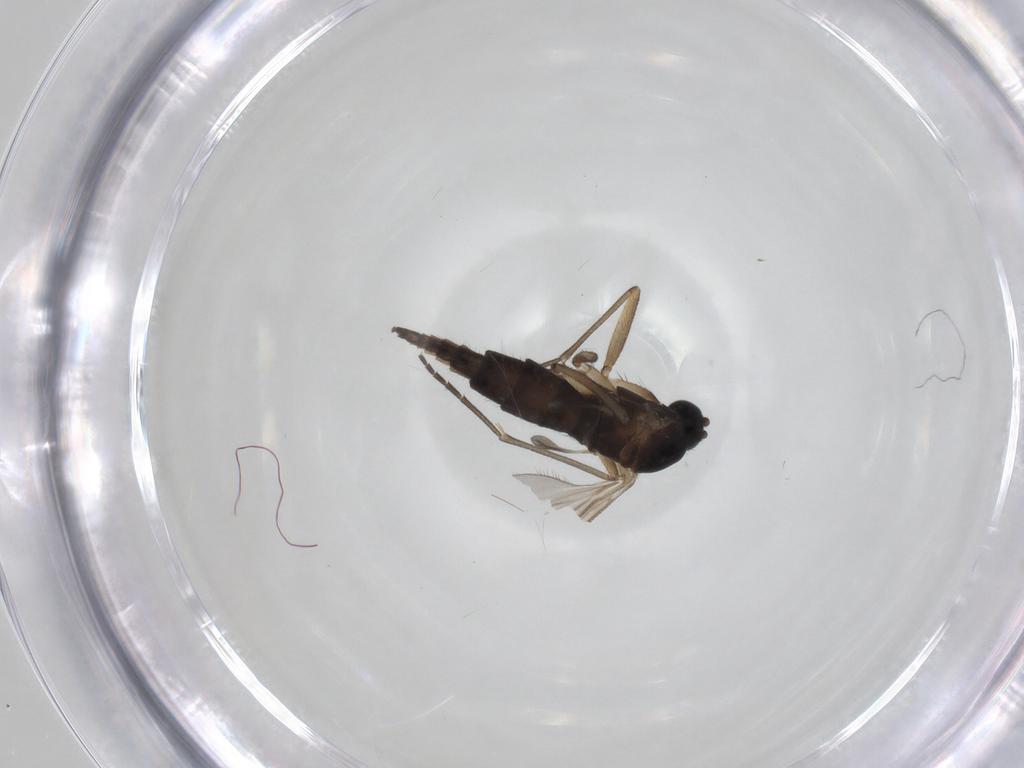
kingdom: Animalia
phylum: Arthropoda
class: Insecta
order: Diptera
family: Sciaridae
